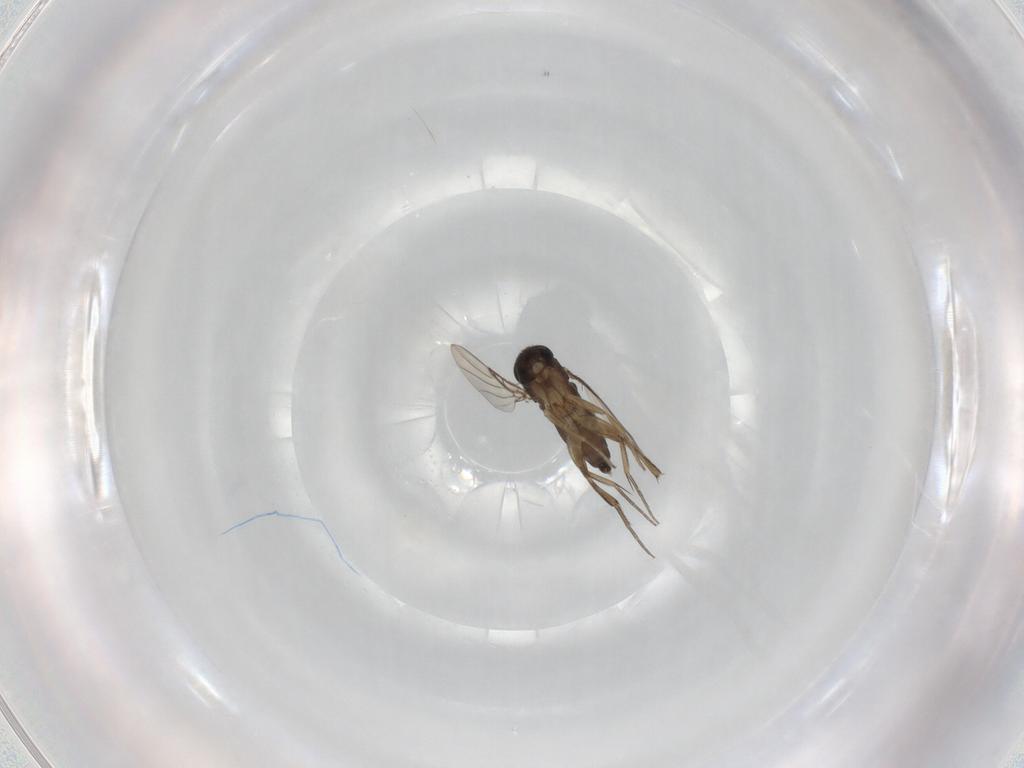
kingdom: Animalia
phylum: Arthropoda
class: Insecta
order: Diptera
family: Phoridae
